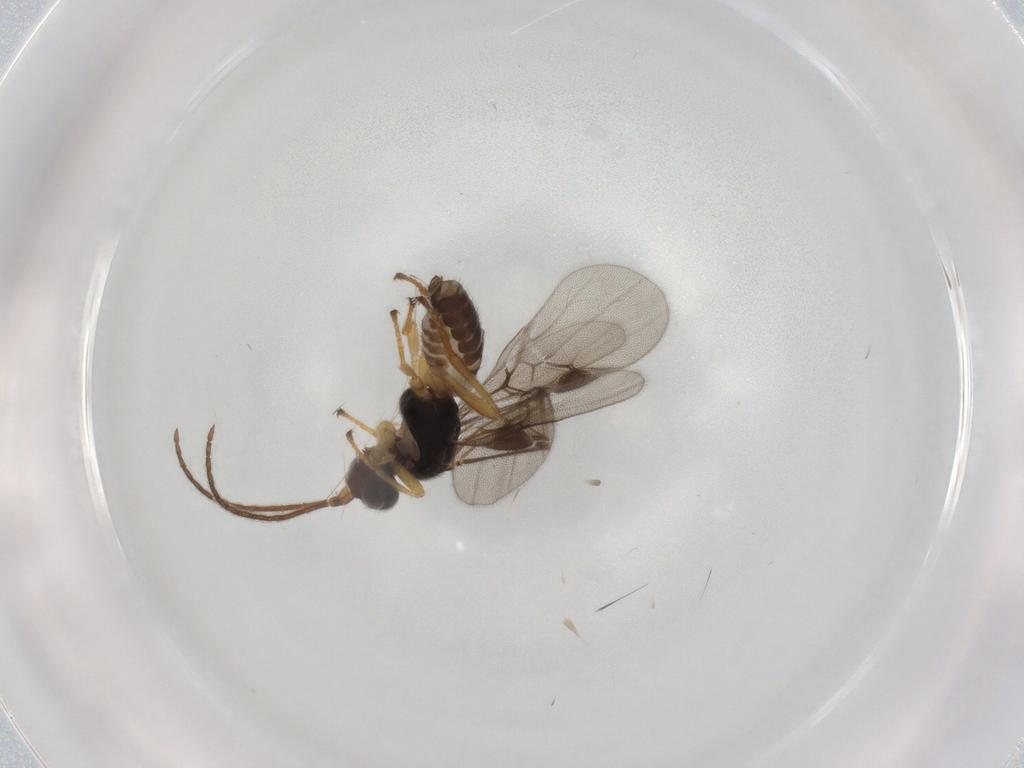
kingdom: Animalia
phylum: Arthropoda
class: Insecta
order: Hymenoptera
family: Braconidae
